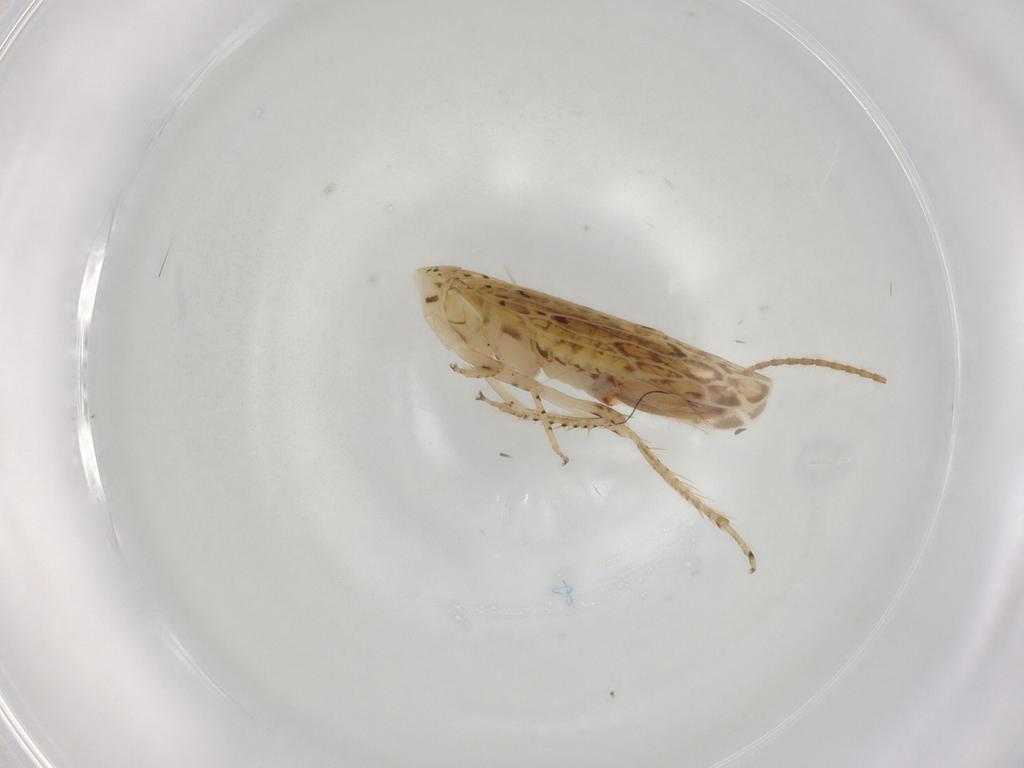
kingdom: Animalia
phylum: Arthropoda
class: Insecta
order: Hemiptera
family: Cicadellidae
